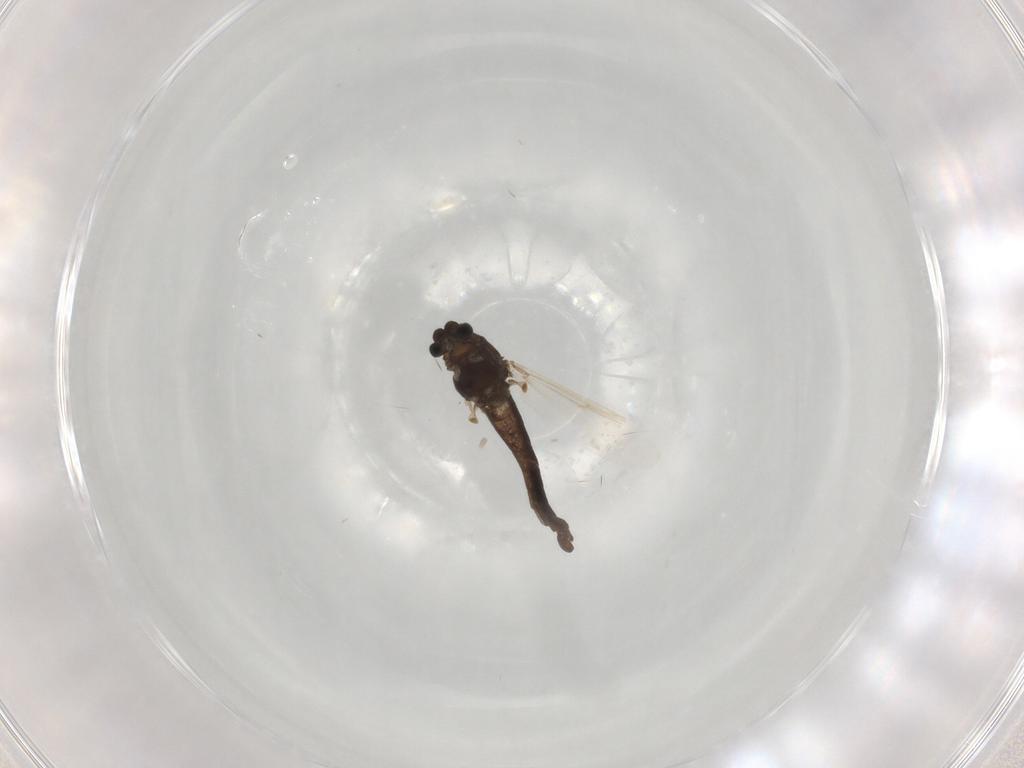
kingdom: Animalia
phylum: Arthropoda
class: Insecta
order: Diptera
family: Chironomidae
